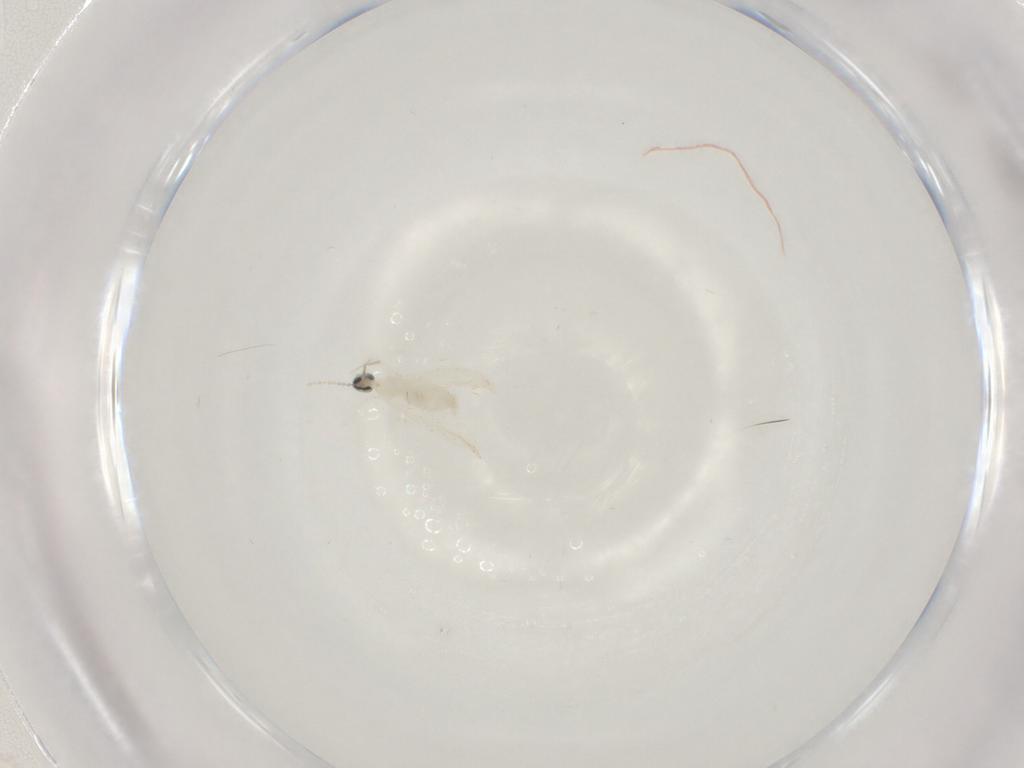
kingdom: Animalia
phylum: Arthropoda
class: Insecta
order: Diptera
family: Cecidomyiidae
